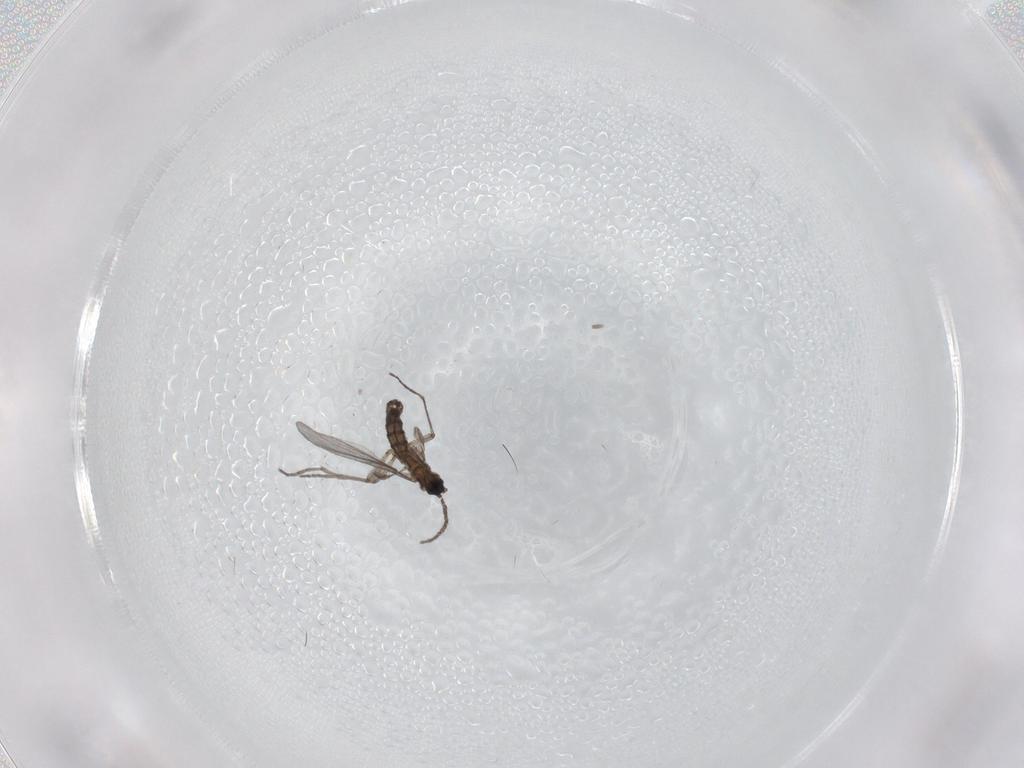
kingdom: Animalia
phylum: Arthropoda
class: Insecta
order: Diptera
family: Sciaridae
